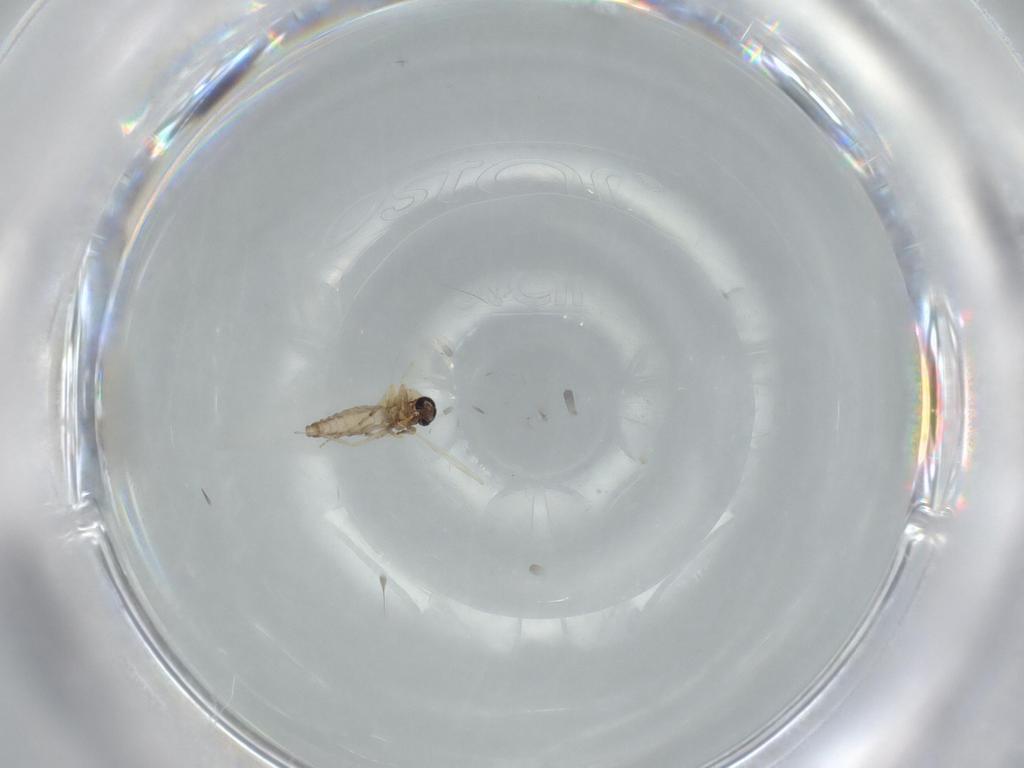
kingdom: Animalia
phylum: Arthropoda
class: Insecta
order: Diptera
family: Ceratopogonidae
